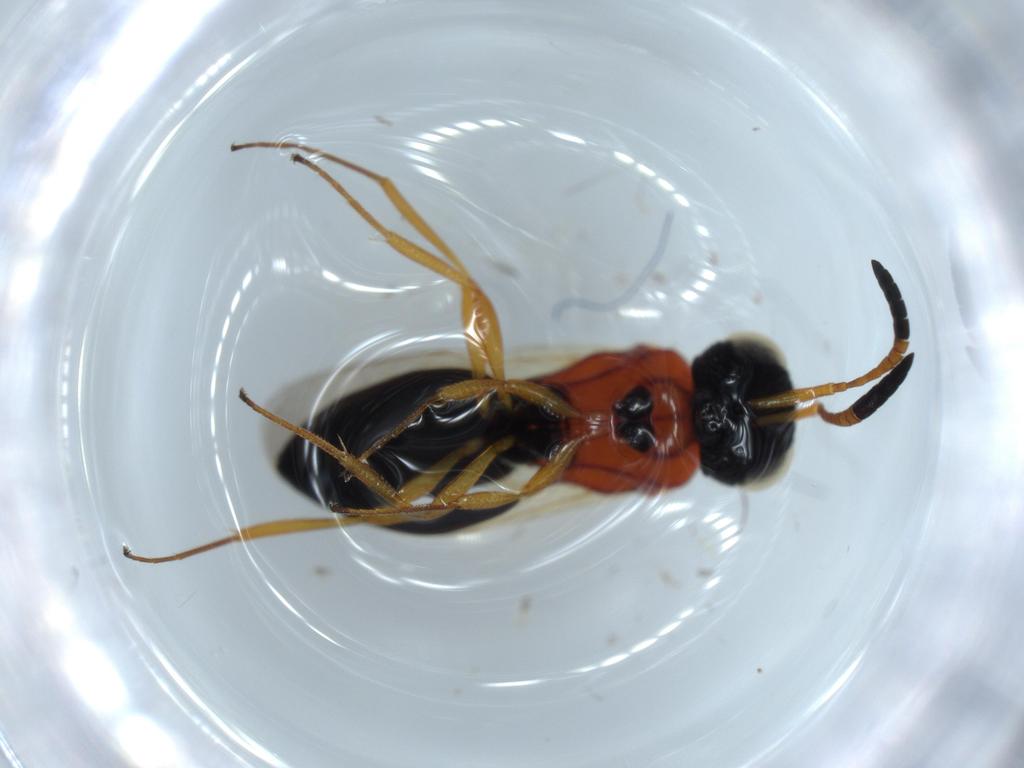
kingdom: Animalia
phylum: Arthropoda
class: Insecta
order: Hymenoptera
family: Scelionidae
